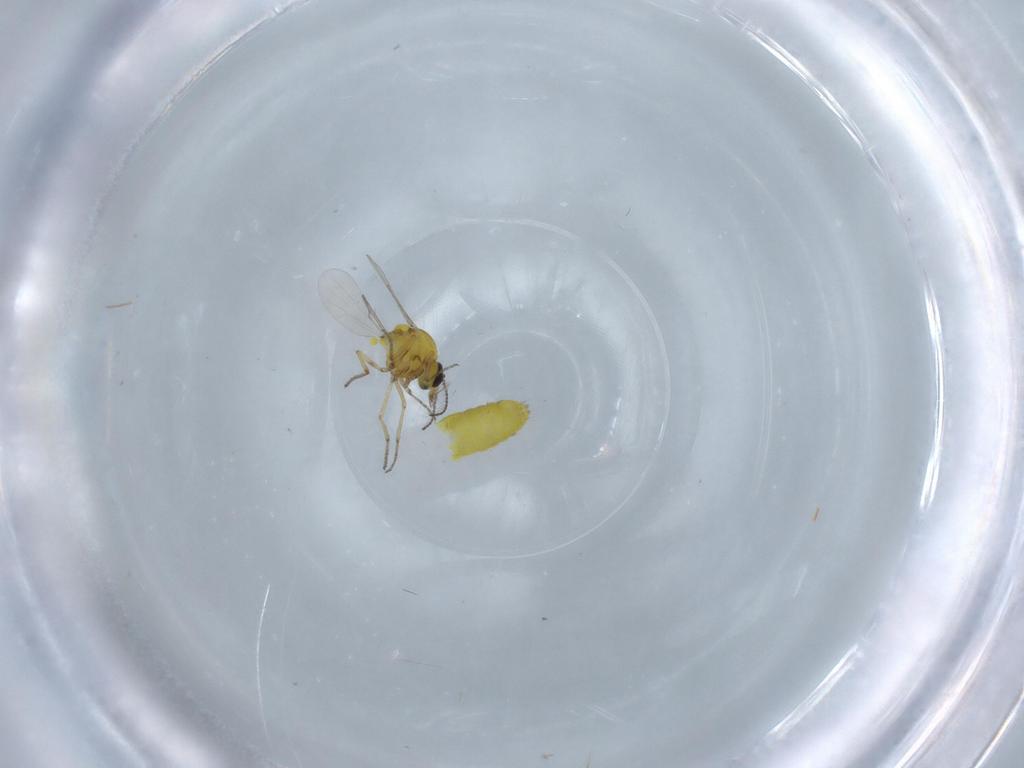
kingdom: Animalia
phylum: Arthropoda
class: Insecta
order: Diptera
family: Ceratopogonidae
